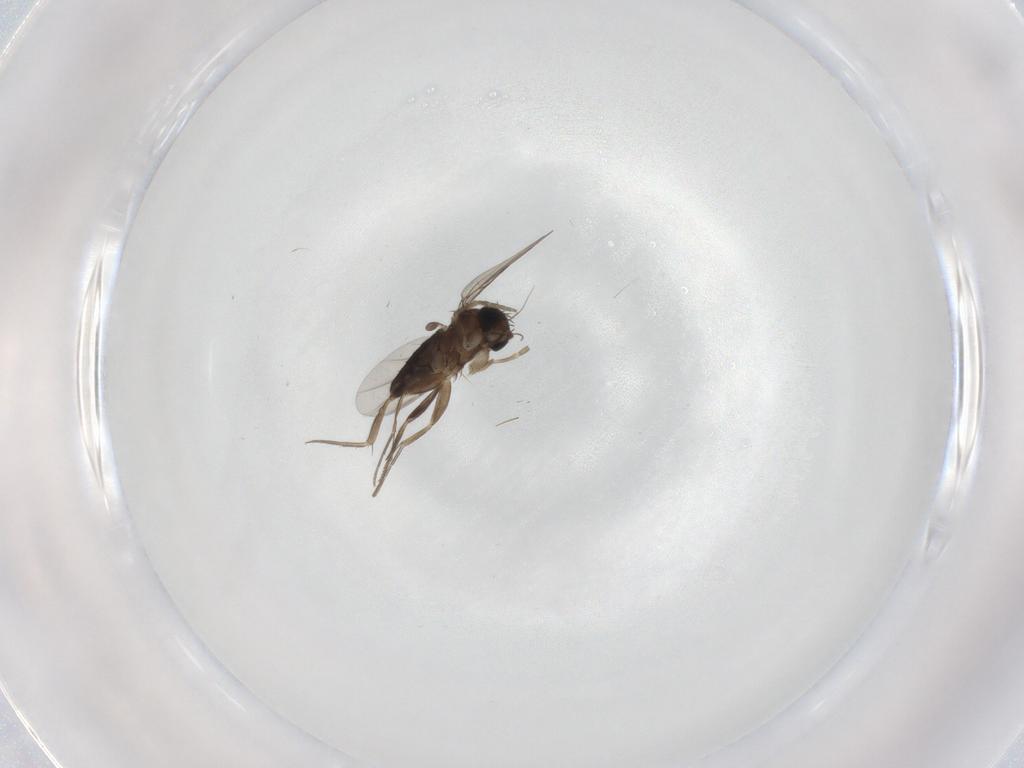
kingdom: Animalia
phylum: Arthropoda
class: Insecta
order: Diptera
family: Phoridae
